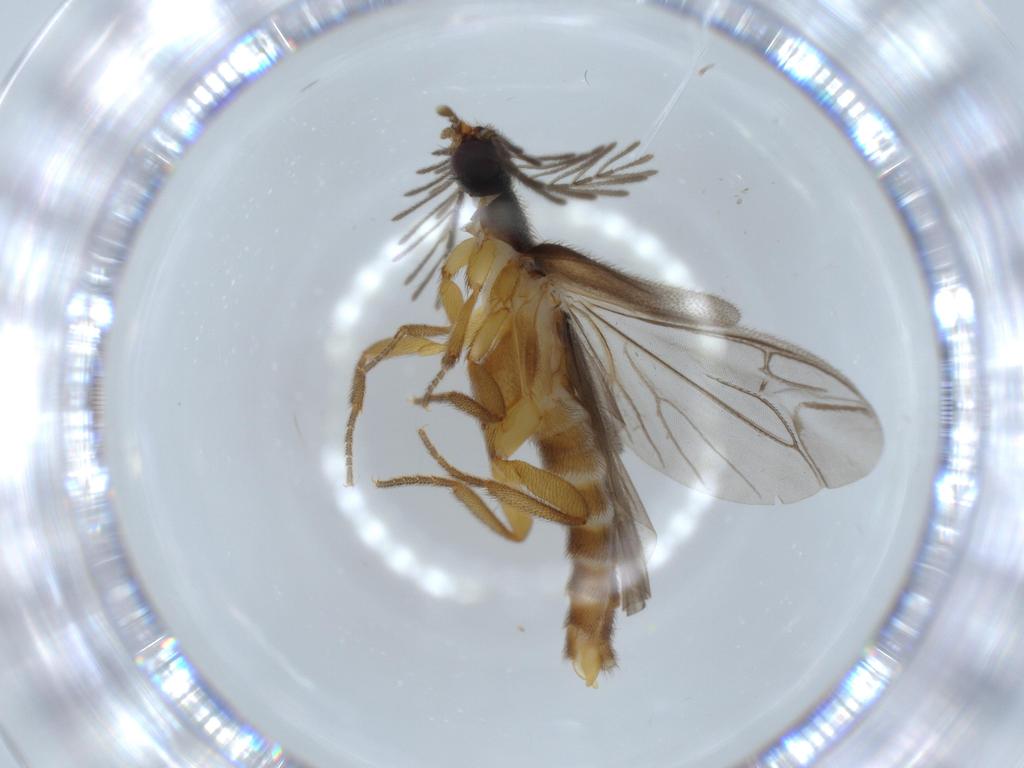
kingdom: Animalia
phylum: Arthropoda
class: Insecta
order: Coleoptera
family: Chrysomelidae
